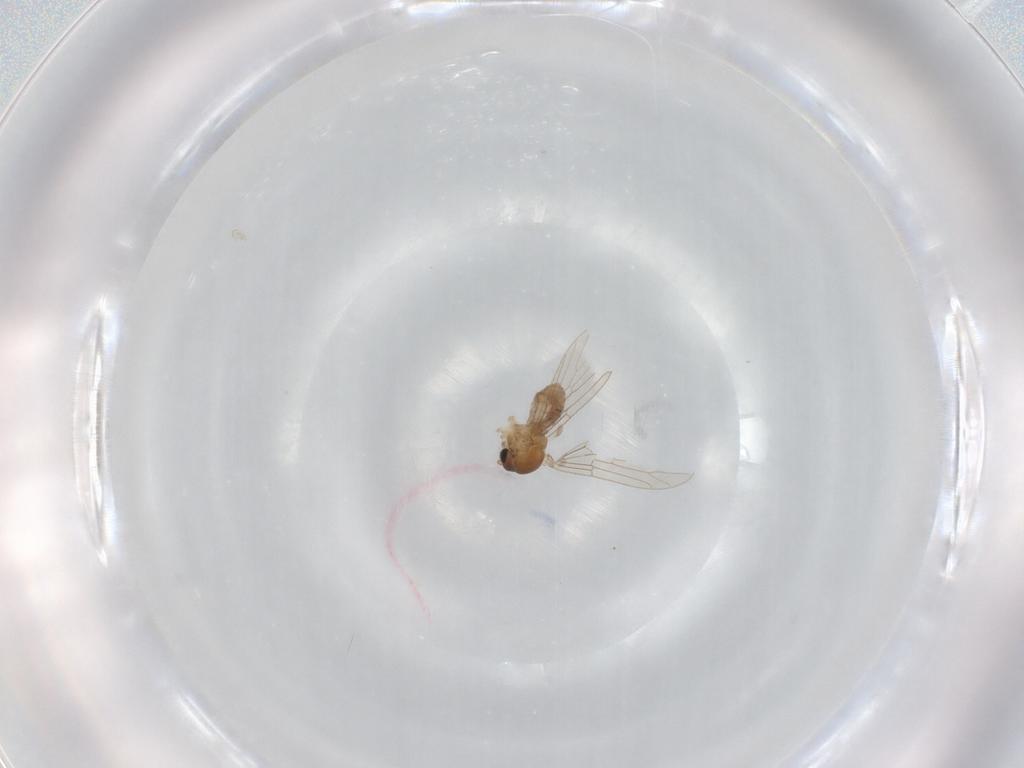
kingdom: Animalia
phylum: Arthropoda
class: Insecta
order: Diptera
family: Psychodidae
